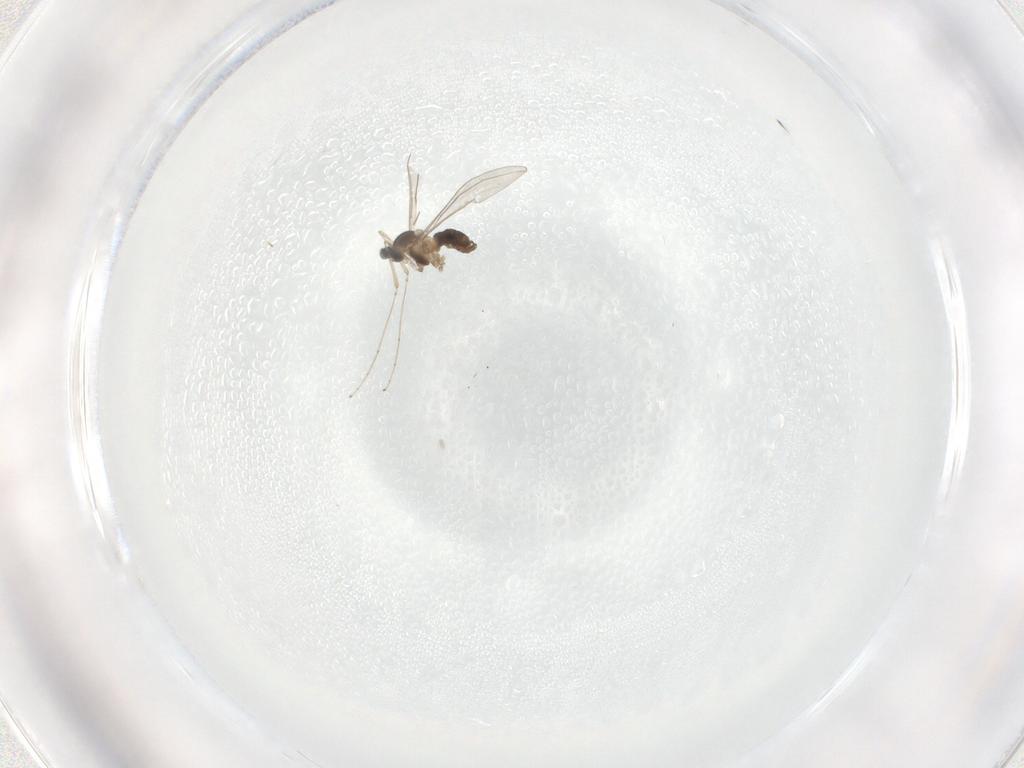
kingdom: Animalia
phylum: Arthropoda
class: Insecta
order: Diptera
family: Cecidomyiidae
